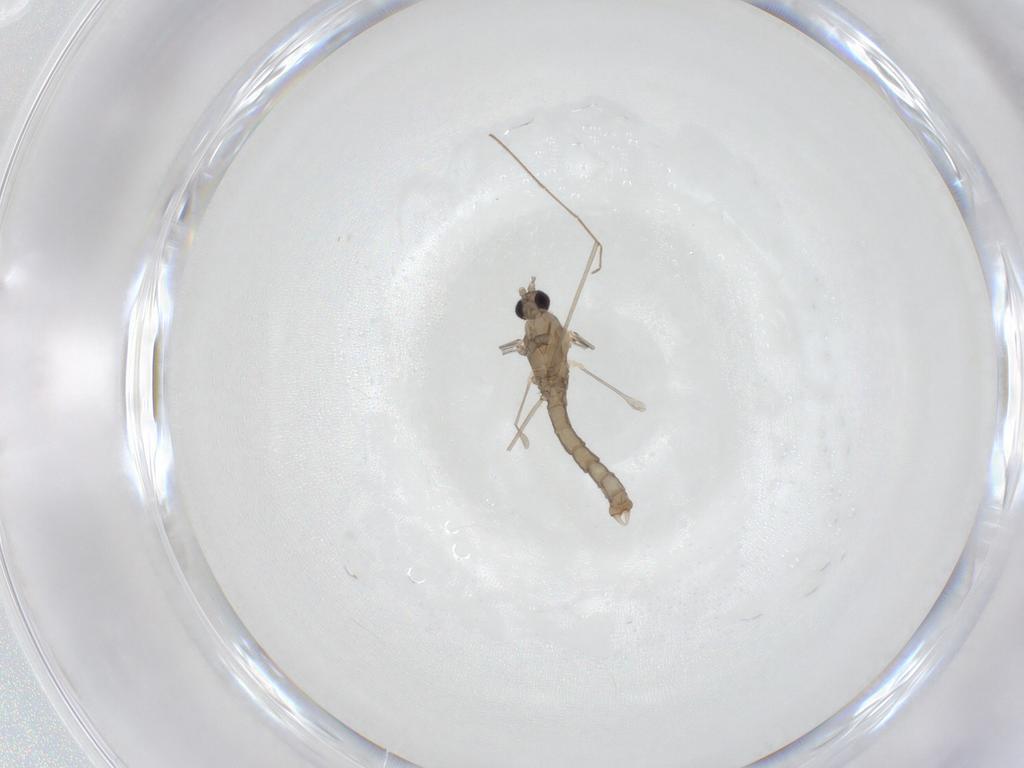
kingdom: Animalia
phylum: Arthropoda
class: Insecta
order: Diptera
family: Cecidomyiidae
